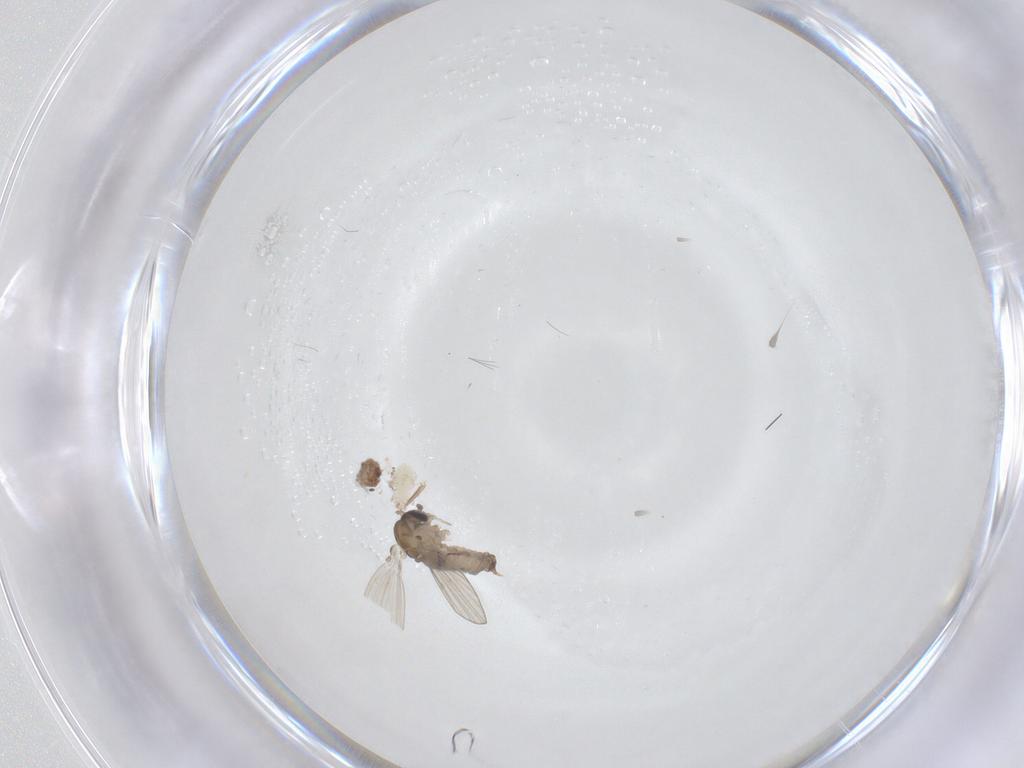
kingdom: Animalia
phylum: Arthropoda
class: Insecta
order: Diptera
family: Psychodidae
